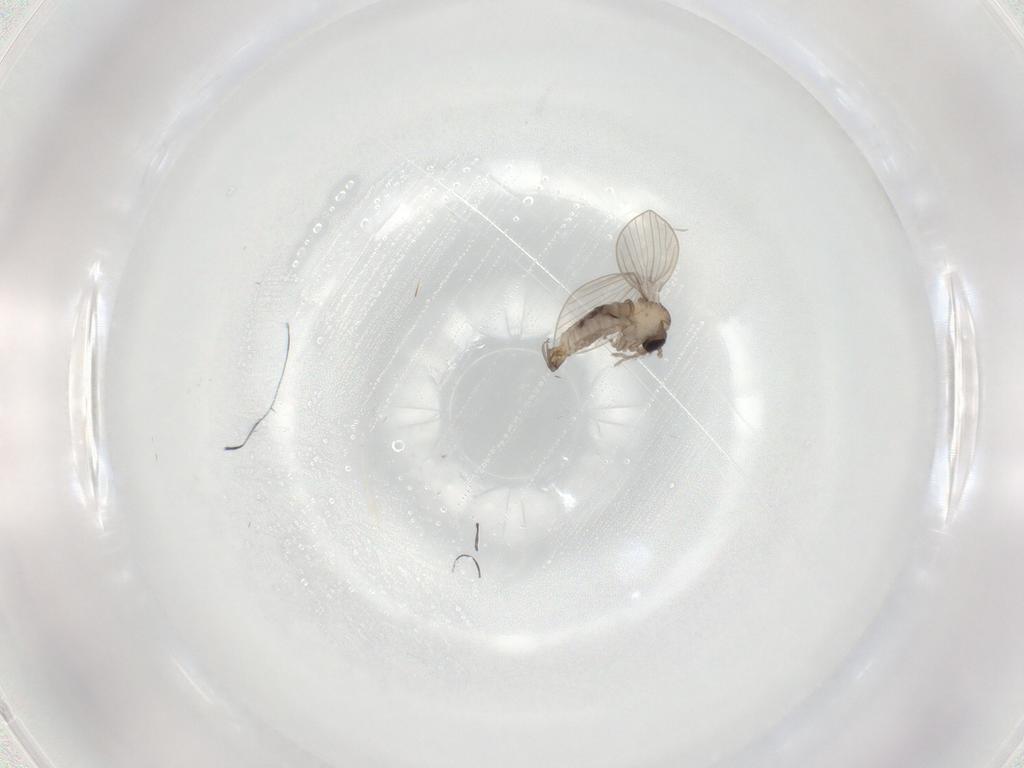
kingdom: Animalia
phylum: Arthropoda
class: Insecta
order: Diptera
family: Psychodidae
